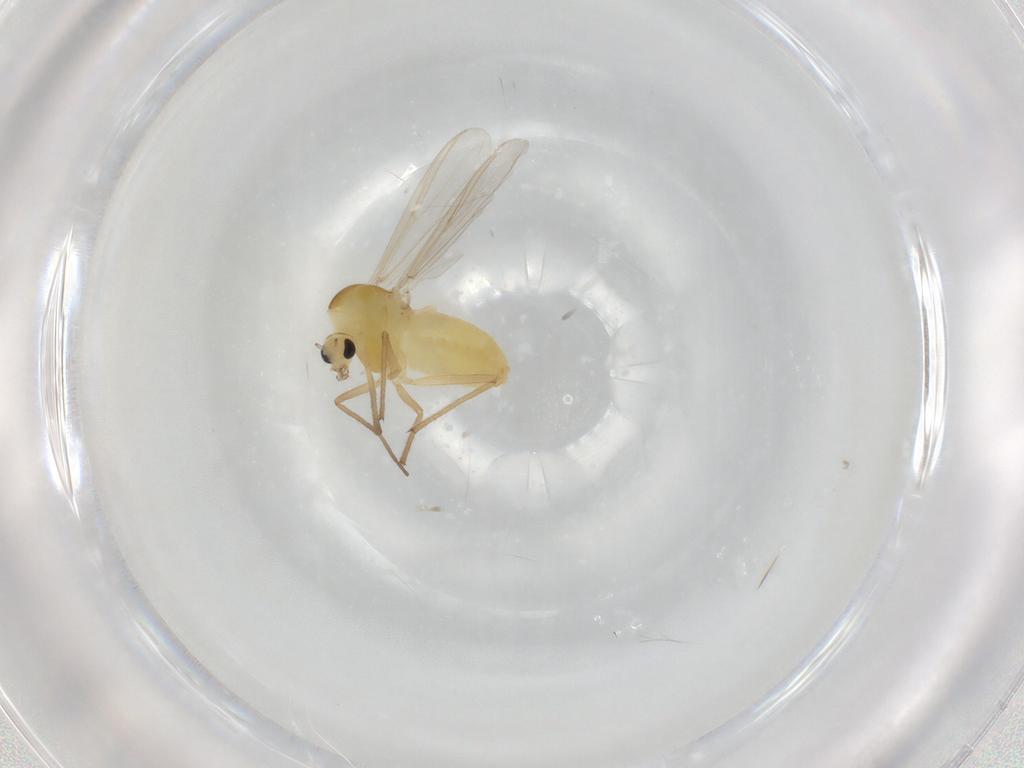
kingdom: Animalia
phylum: Arthropoda
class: Insecta
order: Diptera
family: Chironomidae
